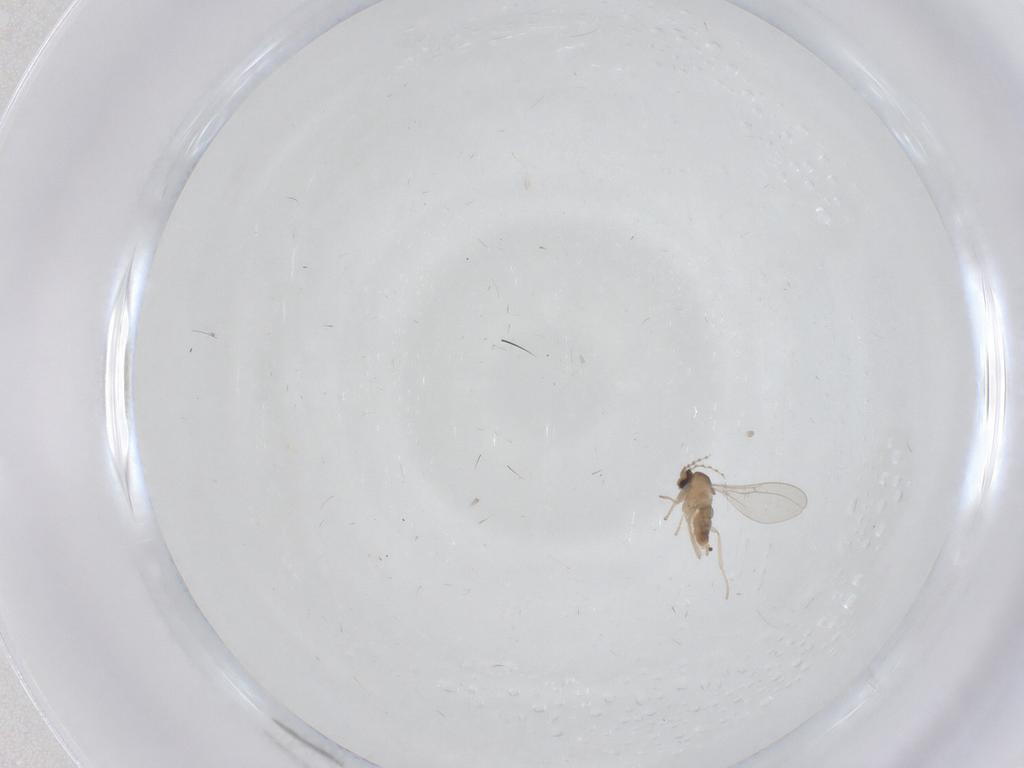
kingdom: Animalia
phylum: Arthropoda
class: Insecta
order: Diptera
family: Cecidomyiidae
